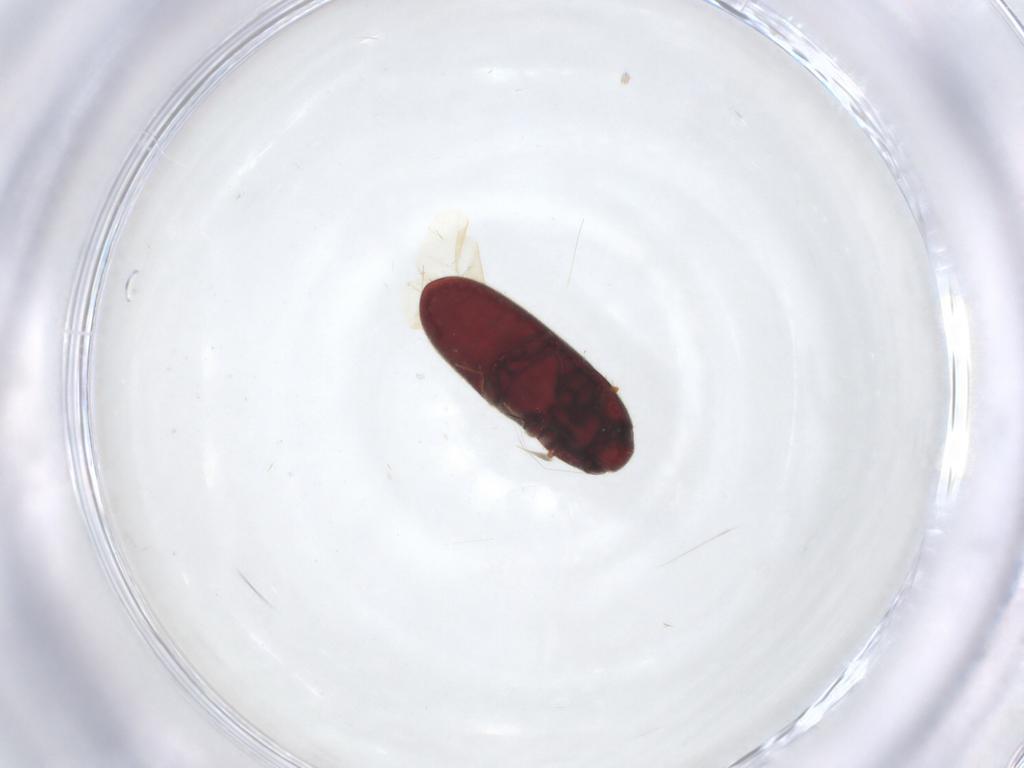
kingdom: Animalia
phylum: Arthropoda
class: Insecta
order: Coleoptera
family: Throscidae
